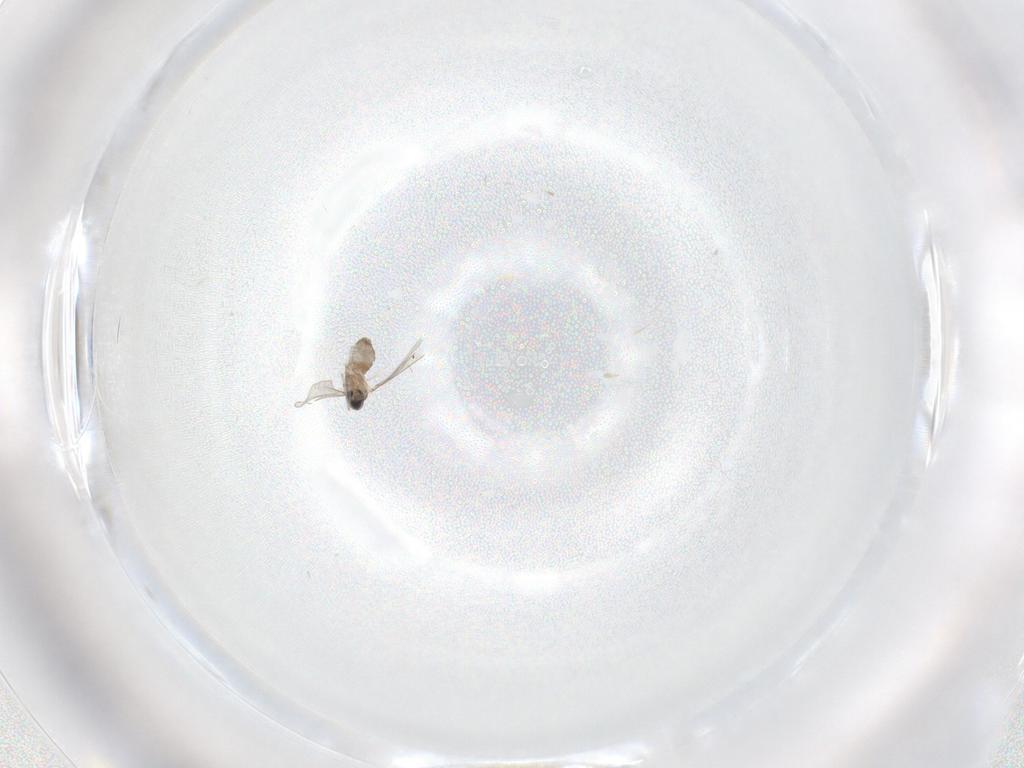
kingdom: Animalia
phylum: Arthropoda
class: Insecta
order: Diptera
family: Cecidomyiidae
